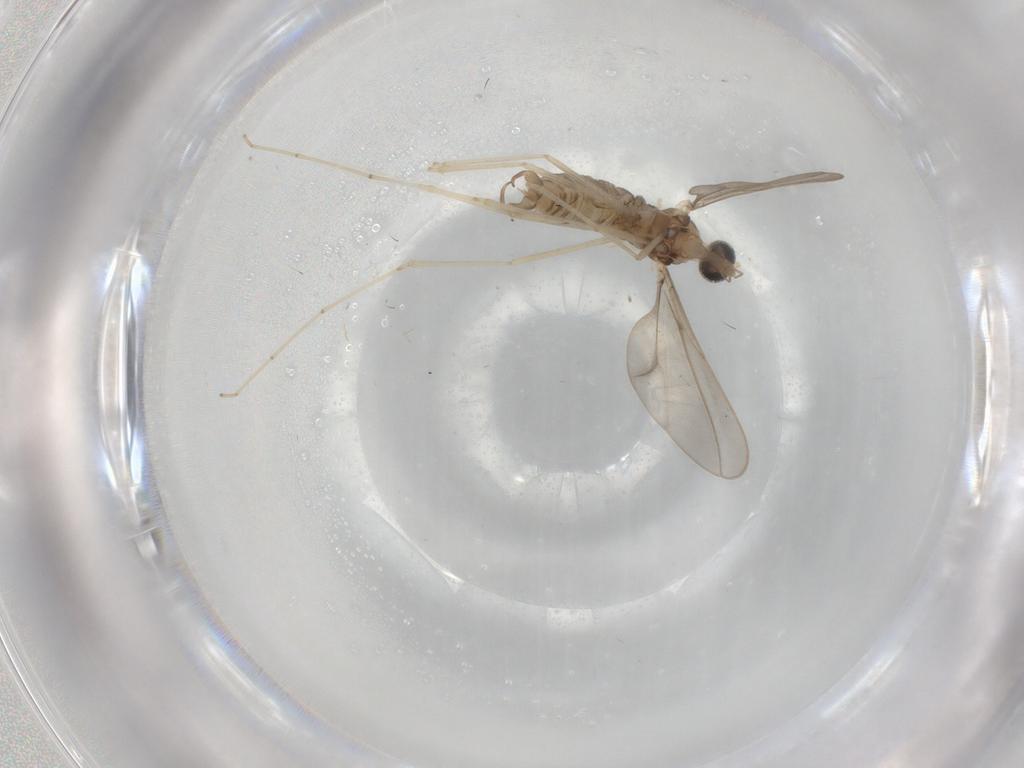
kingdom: Animalia
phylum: Arthropoda
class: Insecta
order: Diptera
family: Cecidomyiidae
